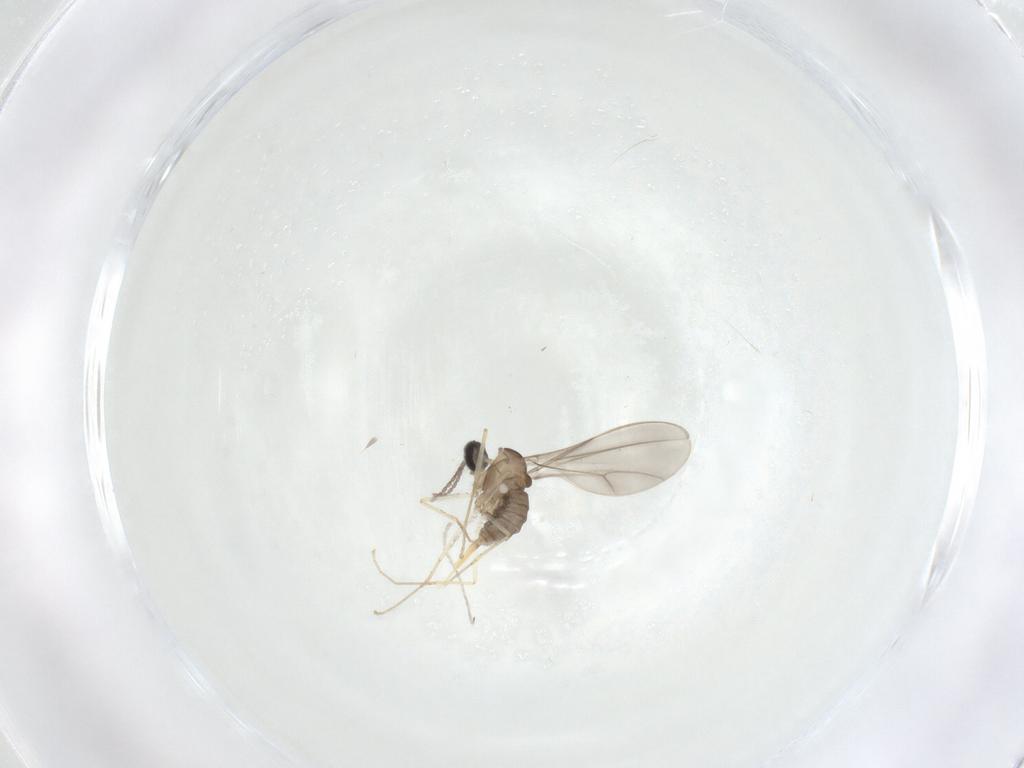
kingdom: Animalia
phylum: Arthropoda
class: Insecta
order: Diptera
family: Cecidomyiidae
